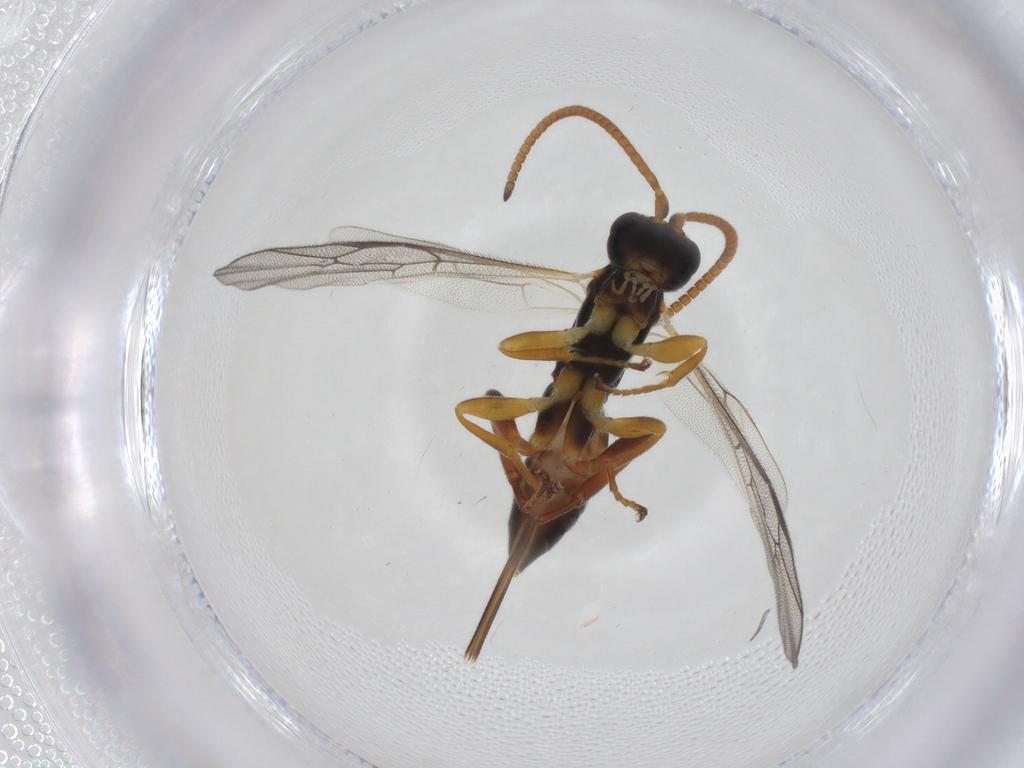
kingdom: Animalia
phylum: Arthropoda
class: Insecta
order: Hymenoptera
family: Ichneumonidae
